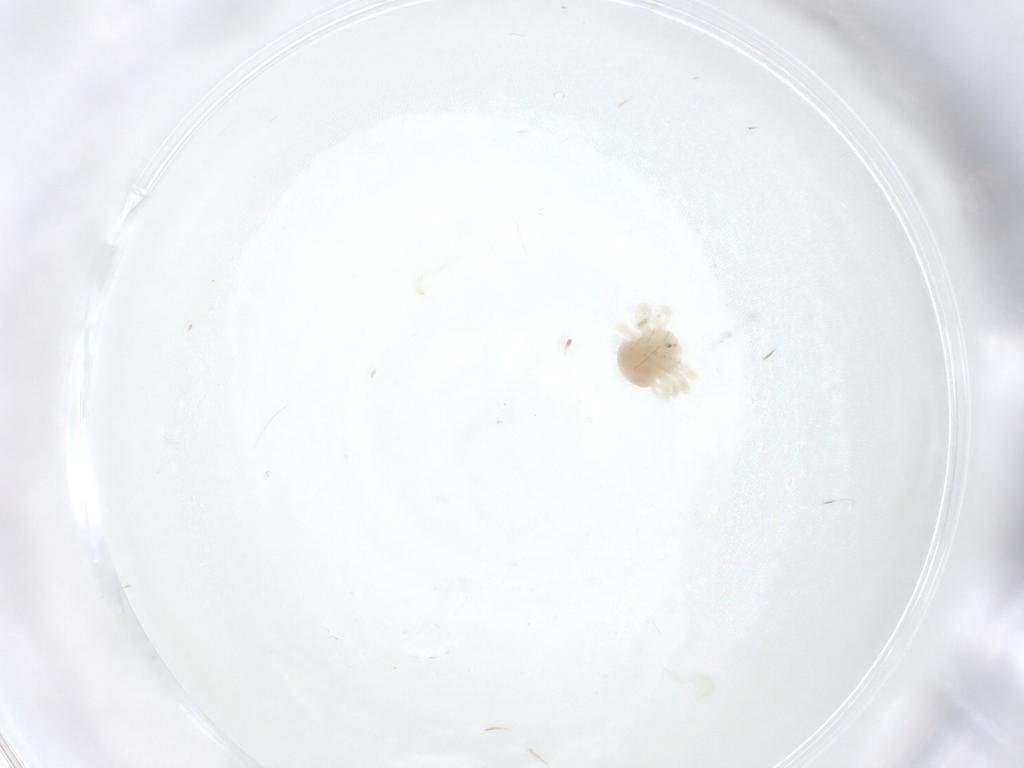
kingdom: Animalia
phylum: Arthropoda
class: Arachnida
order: Trombidiformes
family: Anystidae
